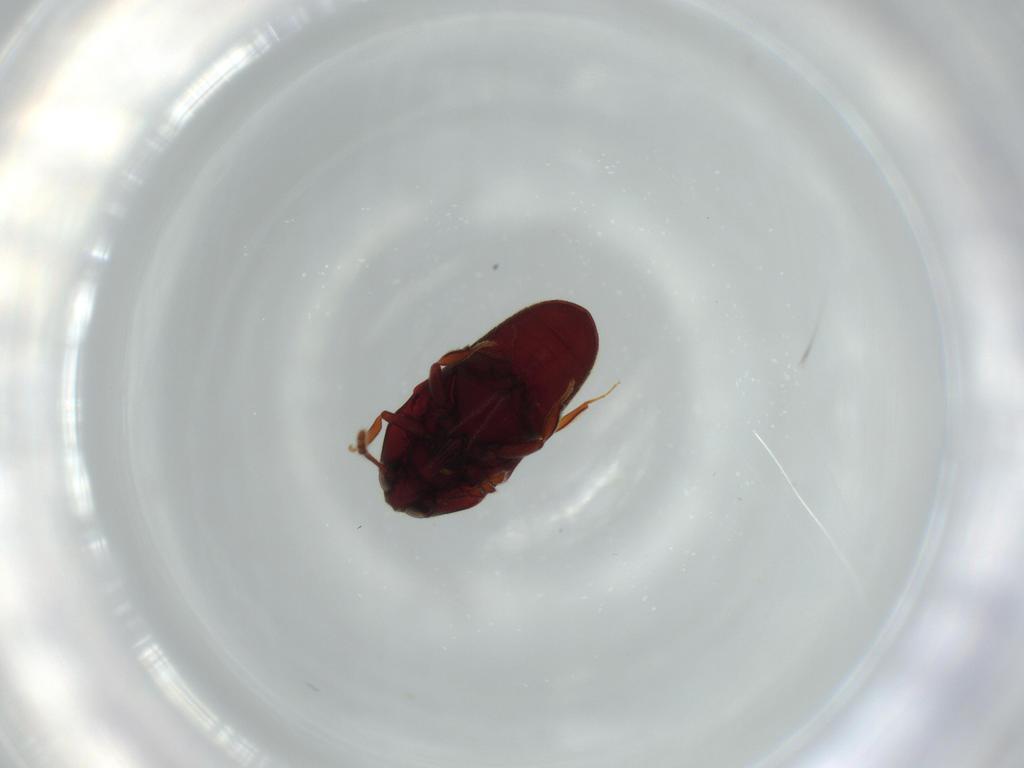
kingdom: Animalia
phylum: Arthropoda
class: Insecta
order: Coleoptera
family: Throscidae
